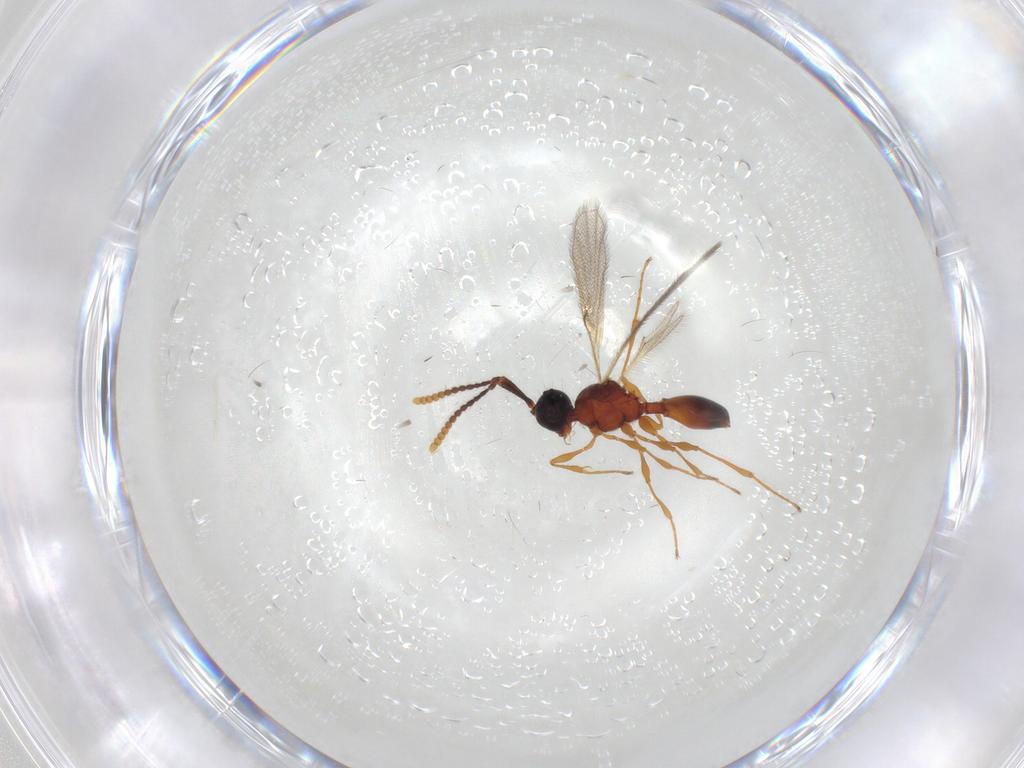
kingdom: Animalia
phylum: Arthropoda
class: Insecta
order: Hymenoptera
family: Diapriidae
